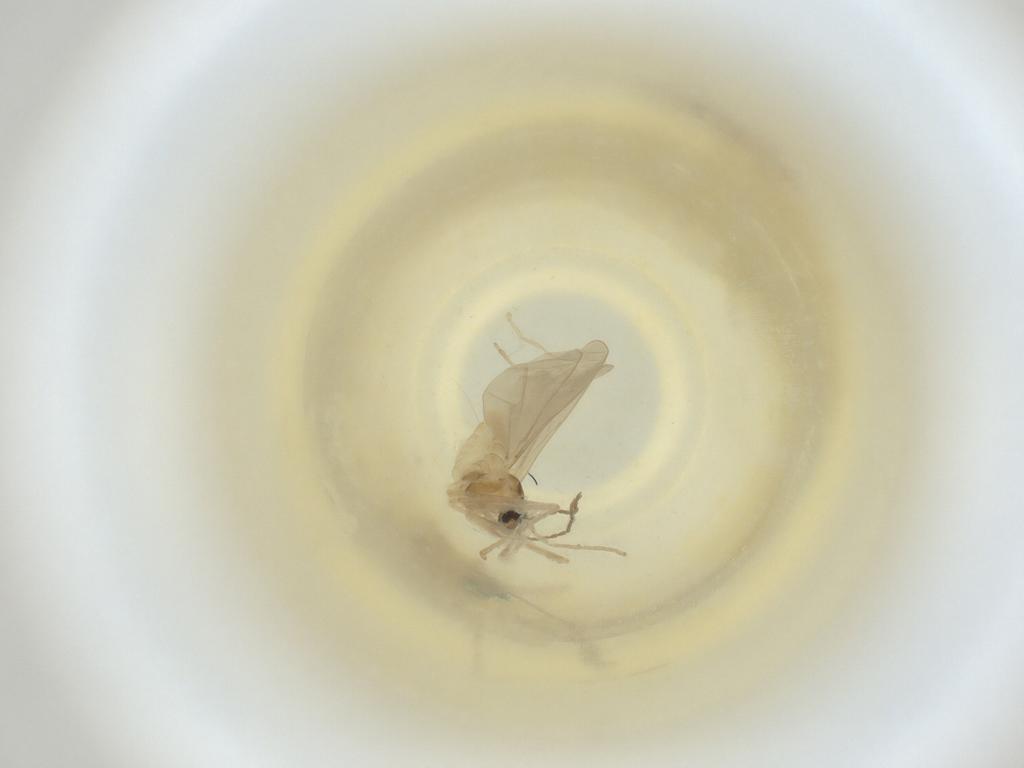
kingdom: Animalia
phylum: Arthropoda
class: Insecta
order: Diptera
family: Cecidomyiidae
